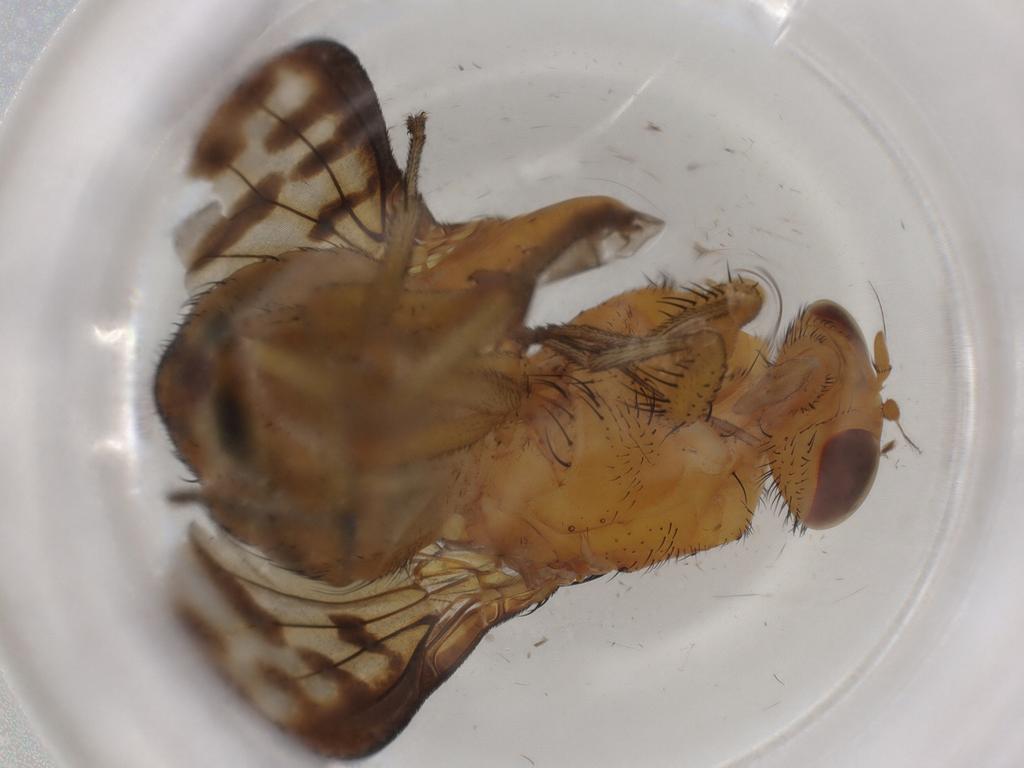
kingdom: Animalia
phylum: Arthropoda
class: Insecta
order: Diptera
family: Sciaridae
